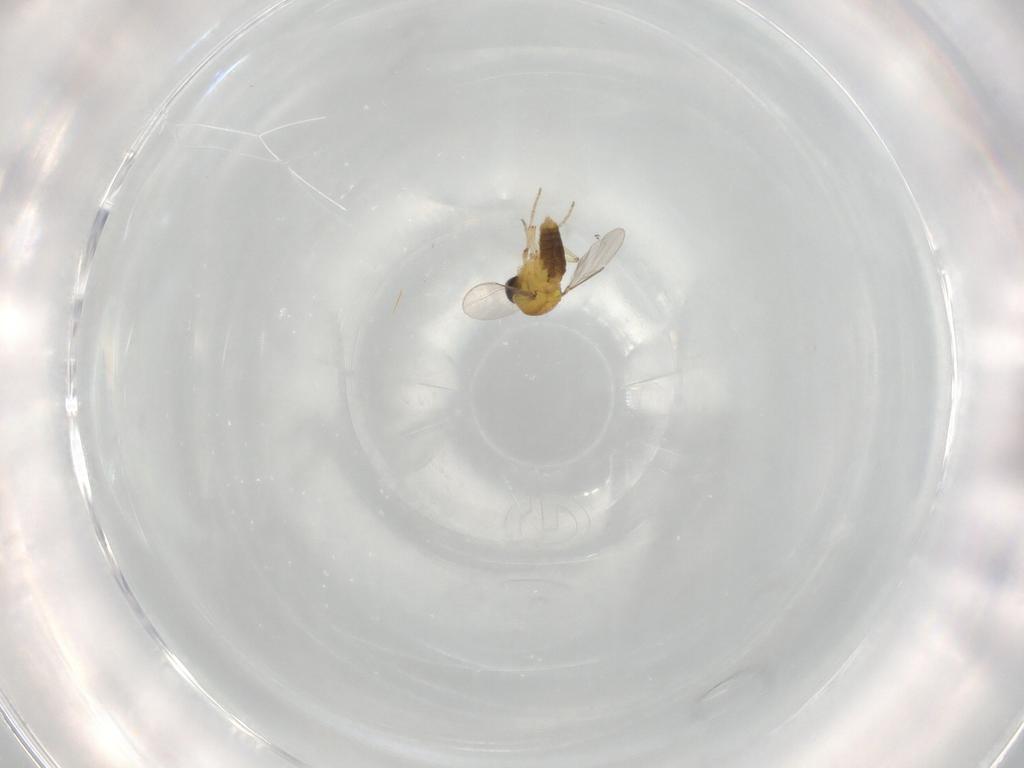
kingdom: Animalia
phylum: Arthropoda
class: Insecta
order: Diptera
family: Ceratopogonidae
